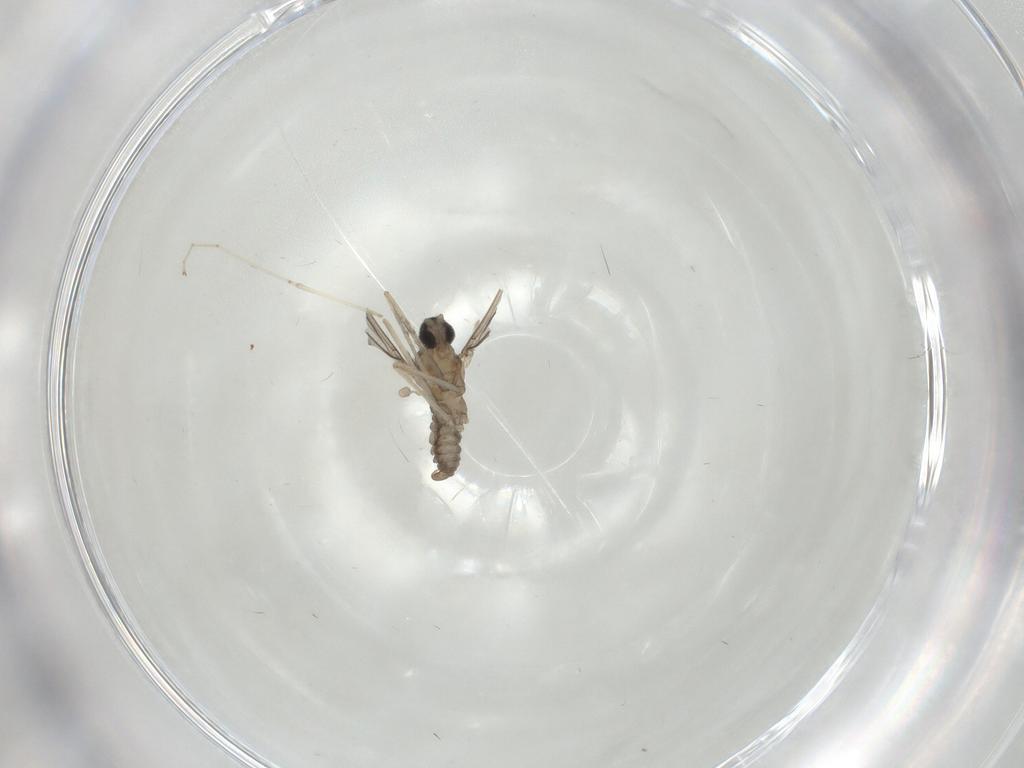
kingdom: Animalia
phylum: Arthropoda
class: Insecta
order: Diptera
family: Cecidomyiidae
